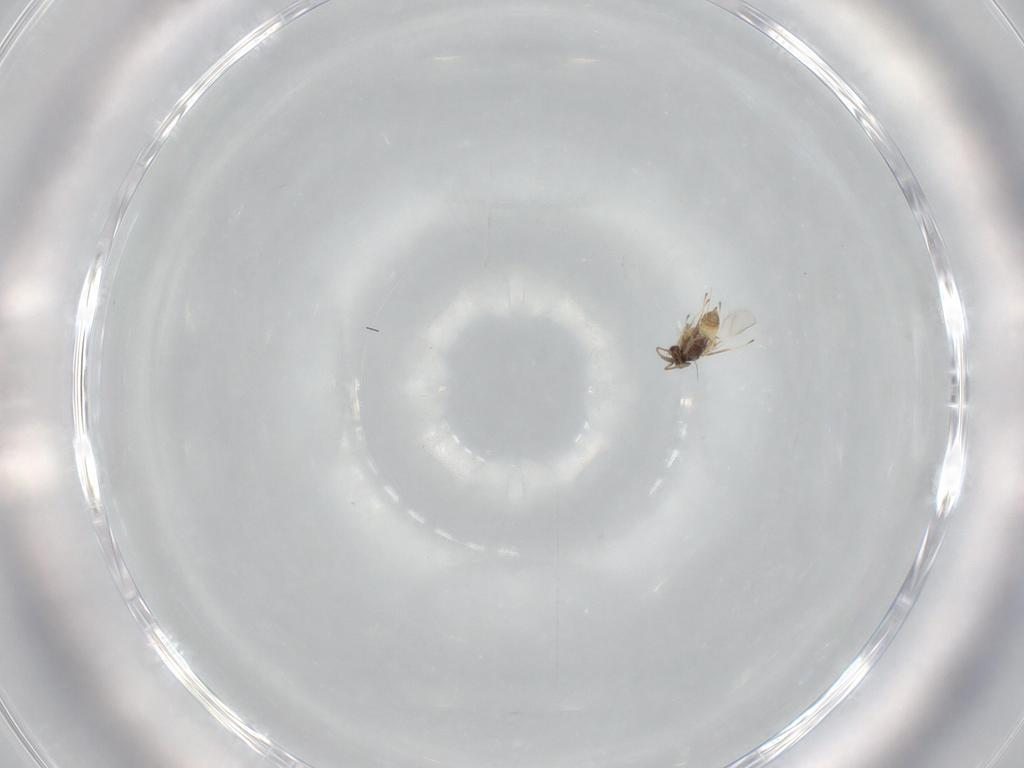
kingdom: Animalia
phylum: Arthropoda
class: Insecta
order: Hymenoptera
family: Mymaridae
